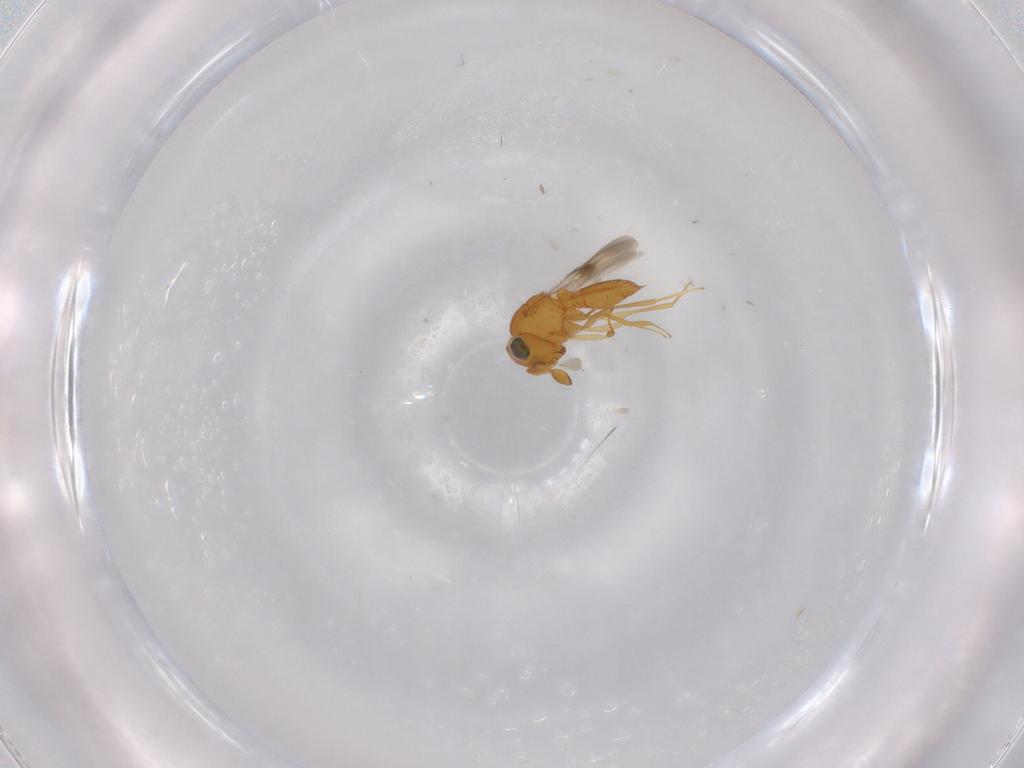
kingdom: Animalia
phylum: Arthropoda
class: Insecta
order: Hymenoptera
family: Scelionidae
